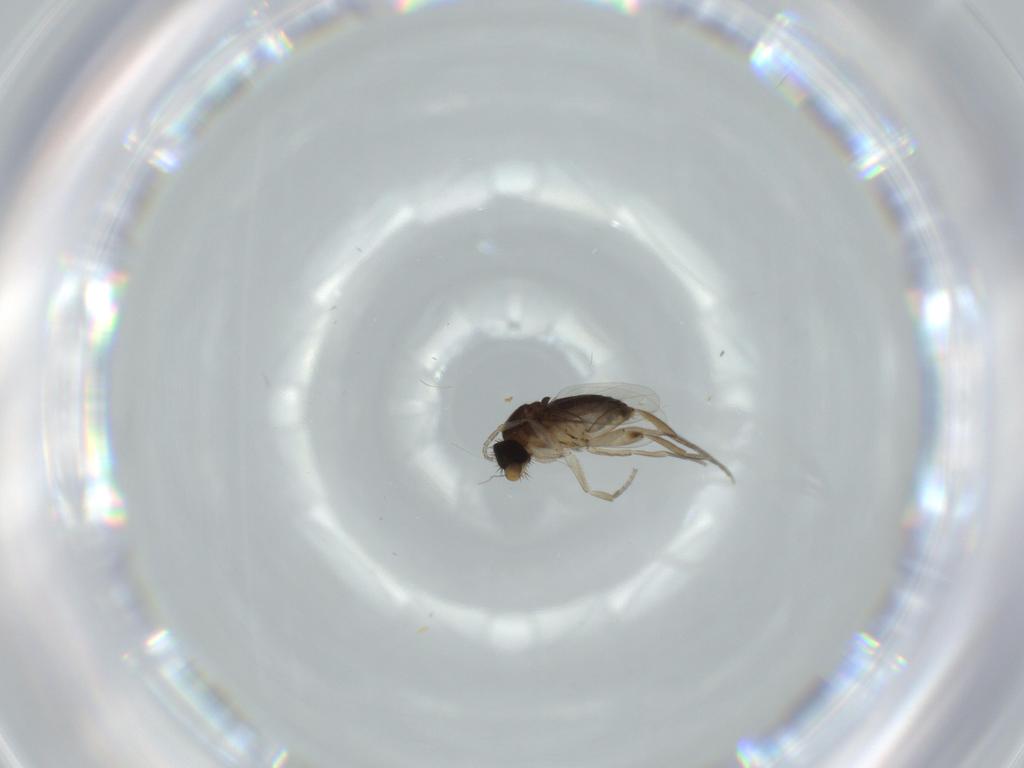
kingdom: Animalia
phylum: Arthropoda
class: Insecta
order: Diptera
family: Phoridae
